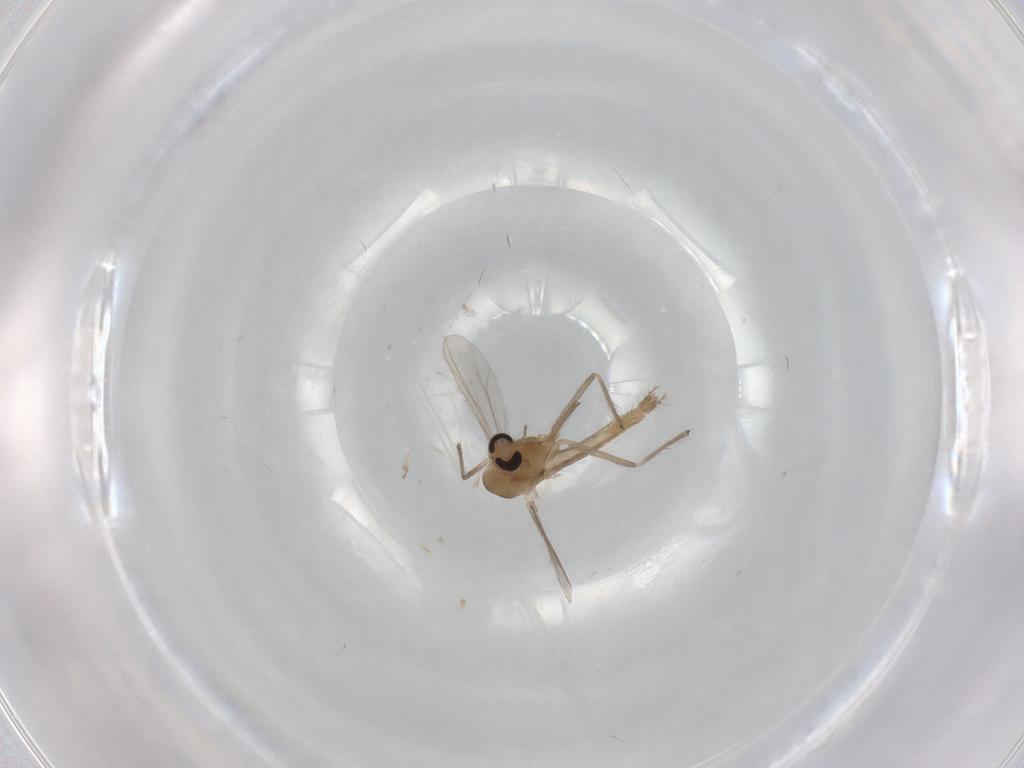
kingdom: Animalia
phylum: Arthropoda
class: Insecta
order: Diptera
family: Chironomidae
